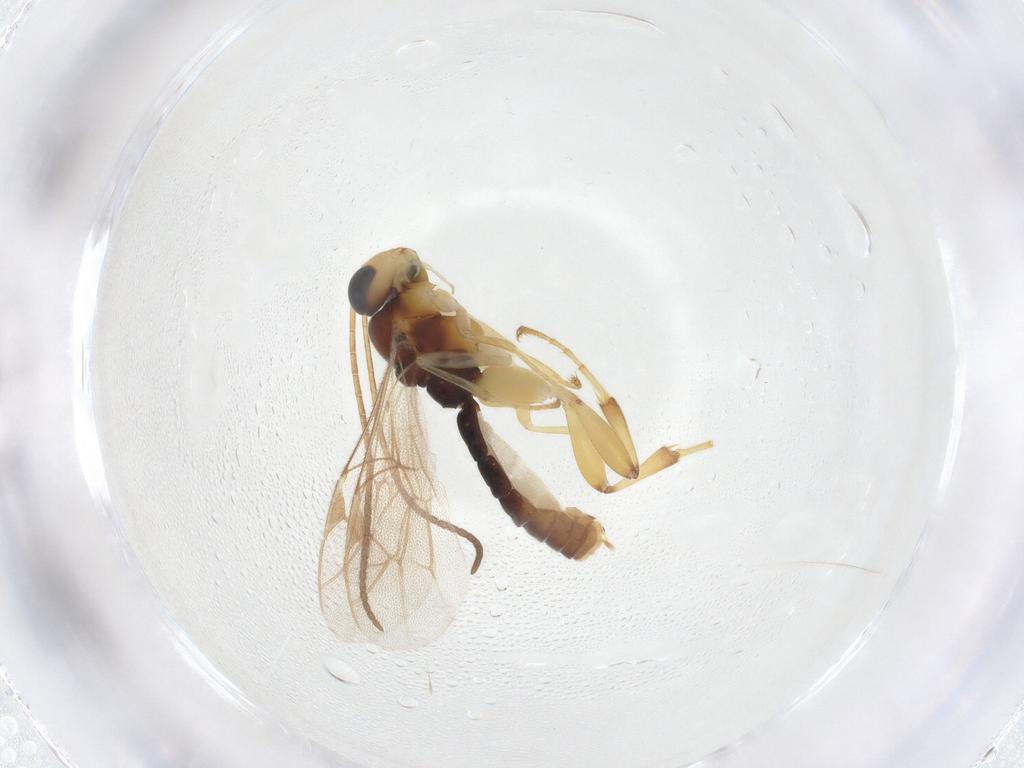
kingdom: Animalia
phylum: Arthropoda
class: Insecta
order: Hymenoptera
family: Ichneumonidae
